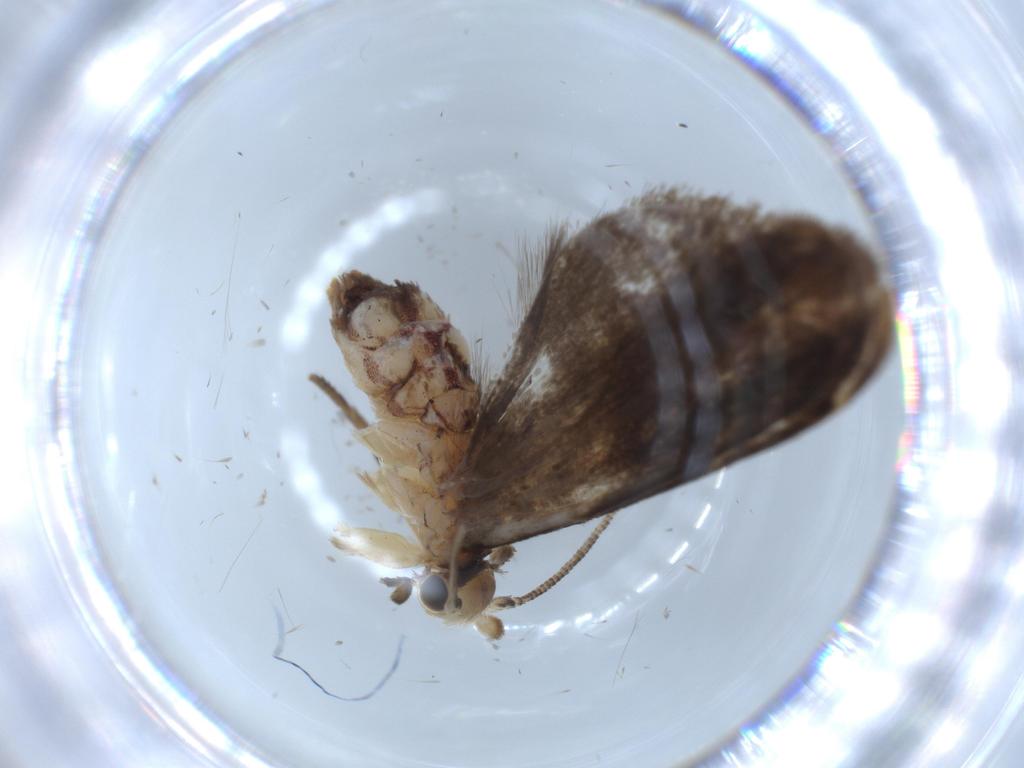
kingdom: Animalia
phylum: Arthropoda
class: Insecta
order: Lepidoptera
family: Dryadaulidae
